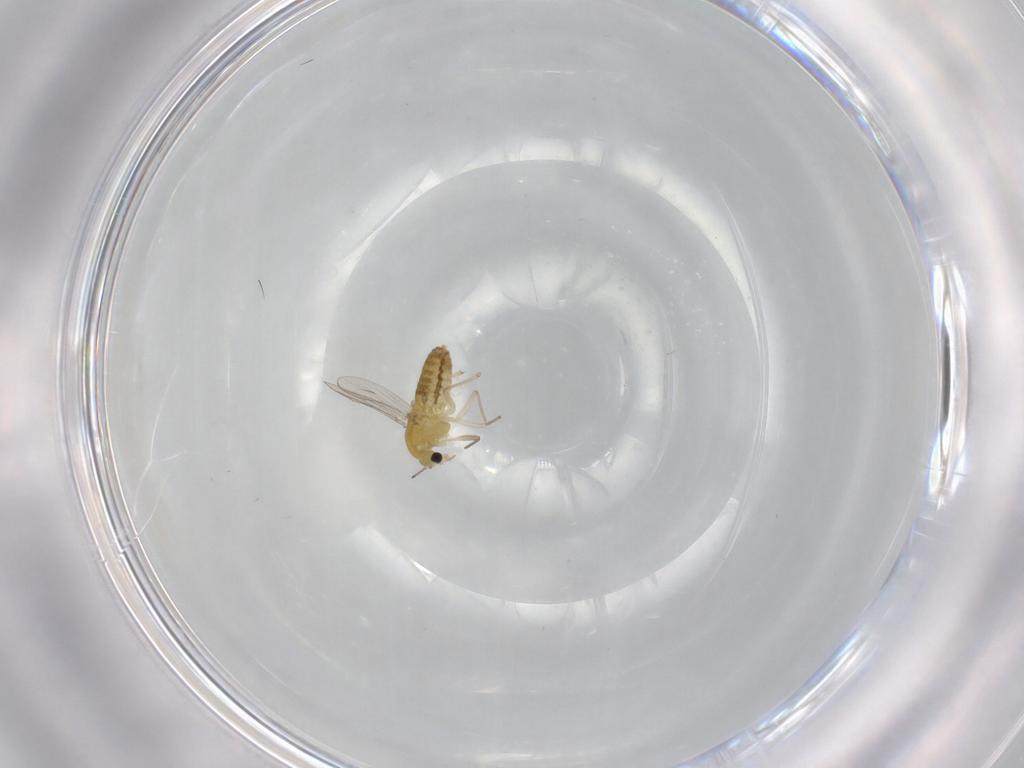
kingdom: Animalia
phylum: Arthropoda
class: Insecta
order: Diptera
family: Chironomidae
